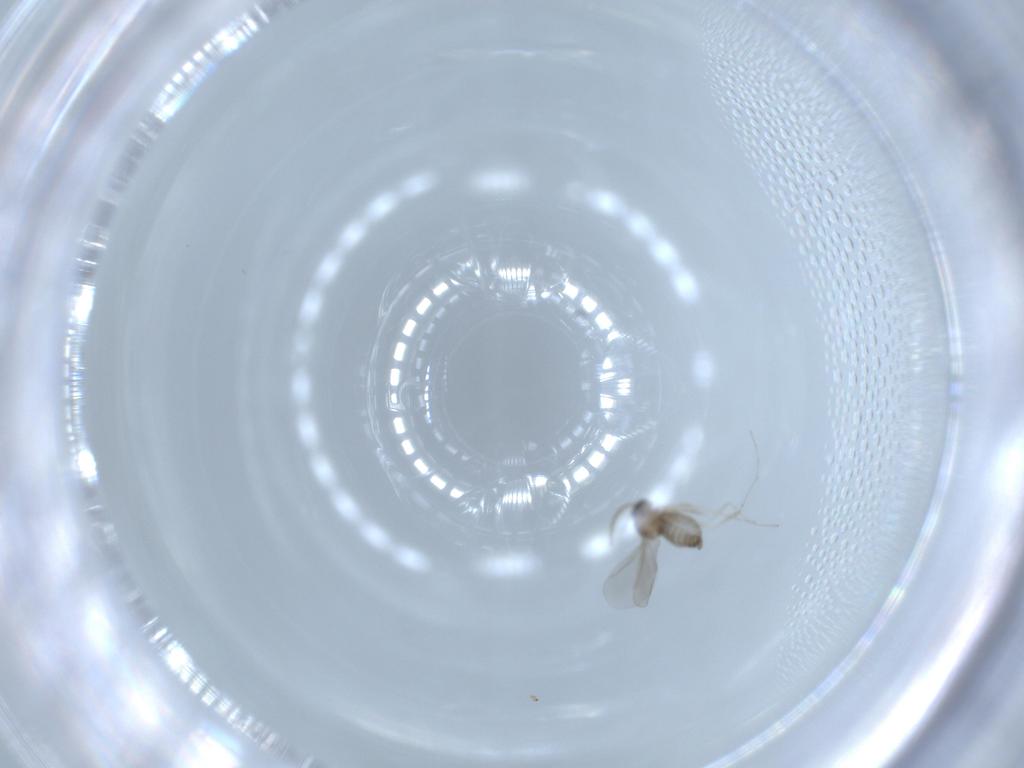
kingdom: Animalia
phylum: Arthropoda
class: Insecta
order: Diptera
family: Cecidomyiidae
